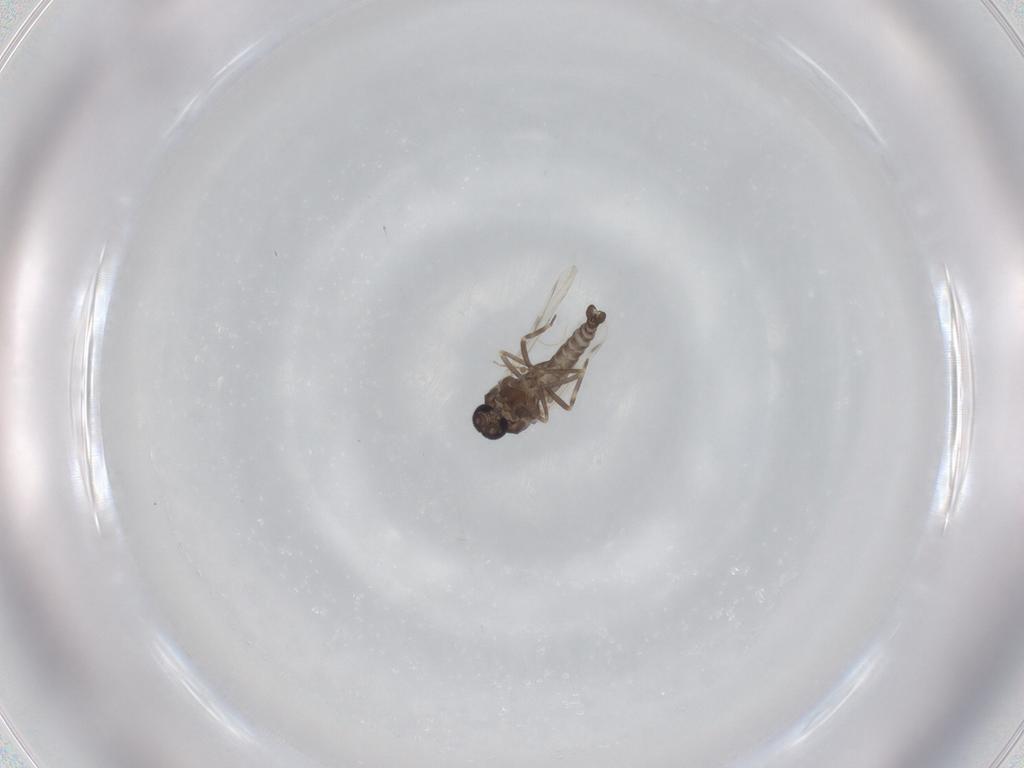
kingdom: Animalia
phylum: Arthropoda
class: Insecta
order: Diptera
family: Ceratopogonidae
